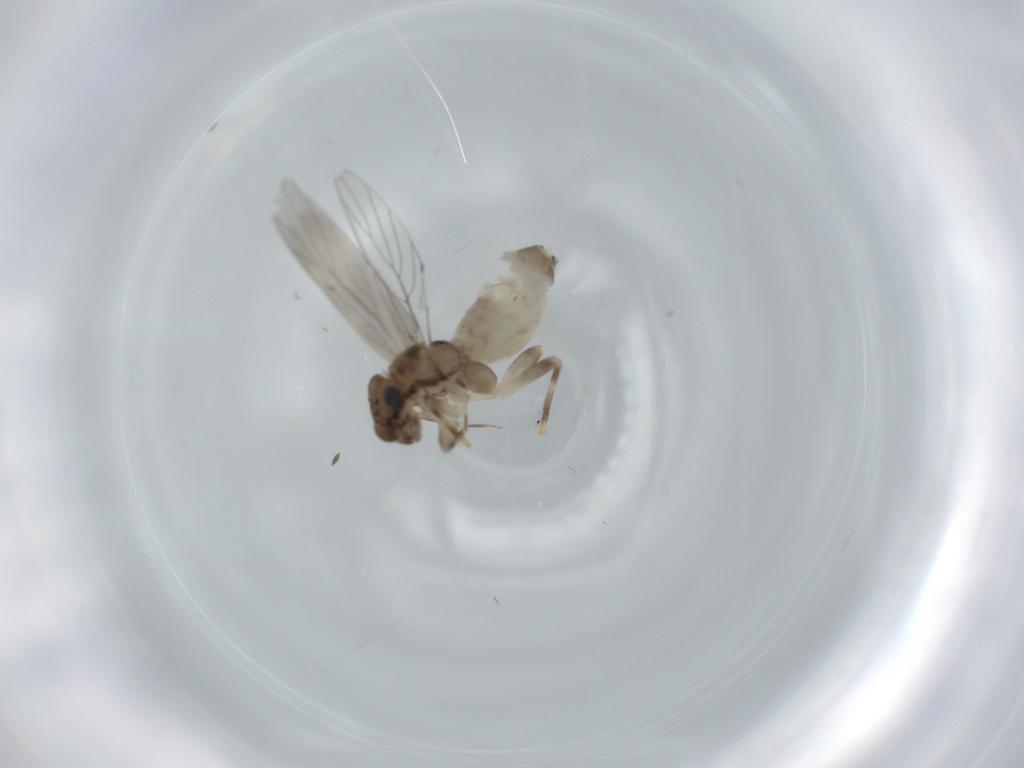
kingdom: Animalia
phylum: Arthropoda
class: Insecta
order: Psocodea
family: Lepidopsocidae
